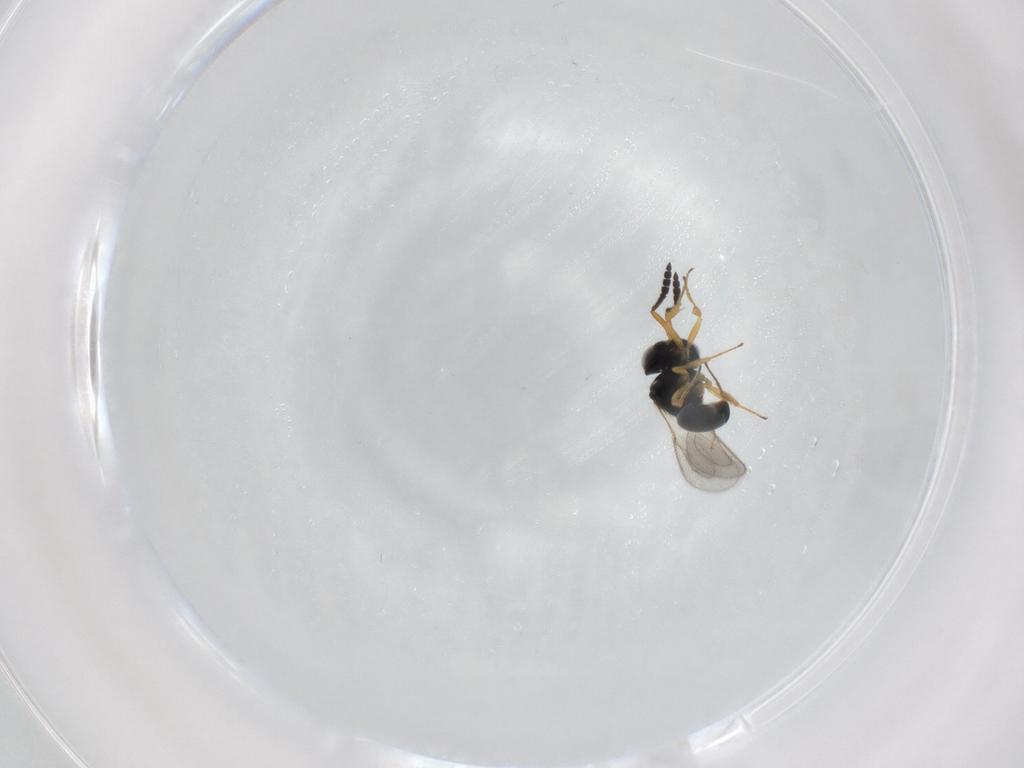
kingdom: Animalia
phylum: Arthropoda
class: Insecta
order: Hymenoptera
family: Scelionidae
